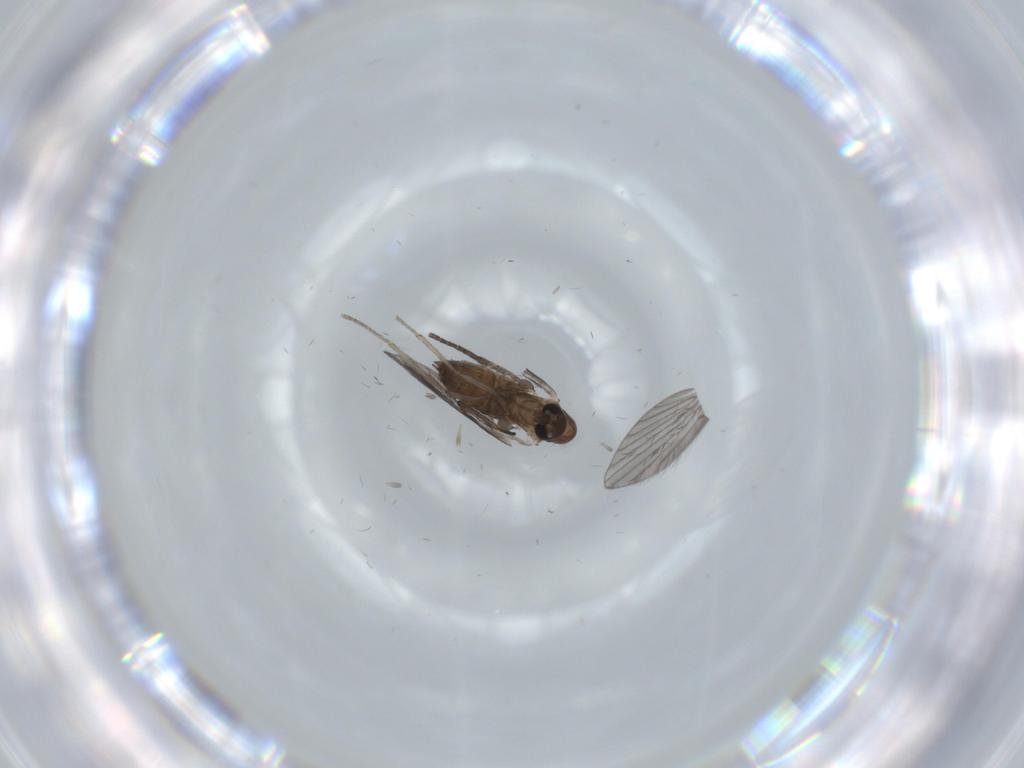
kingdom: Animalia
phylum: Arthropoda
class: Insecta
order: Diptera
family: Psychodidae
